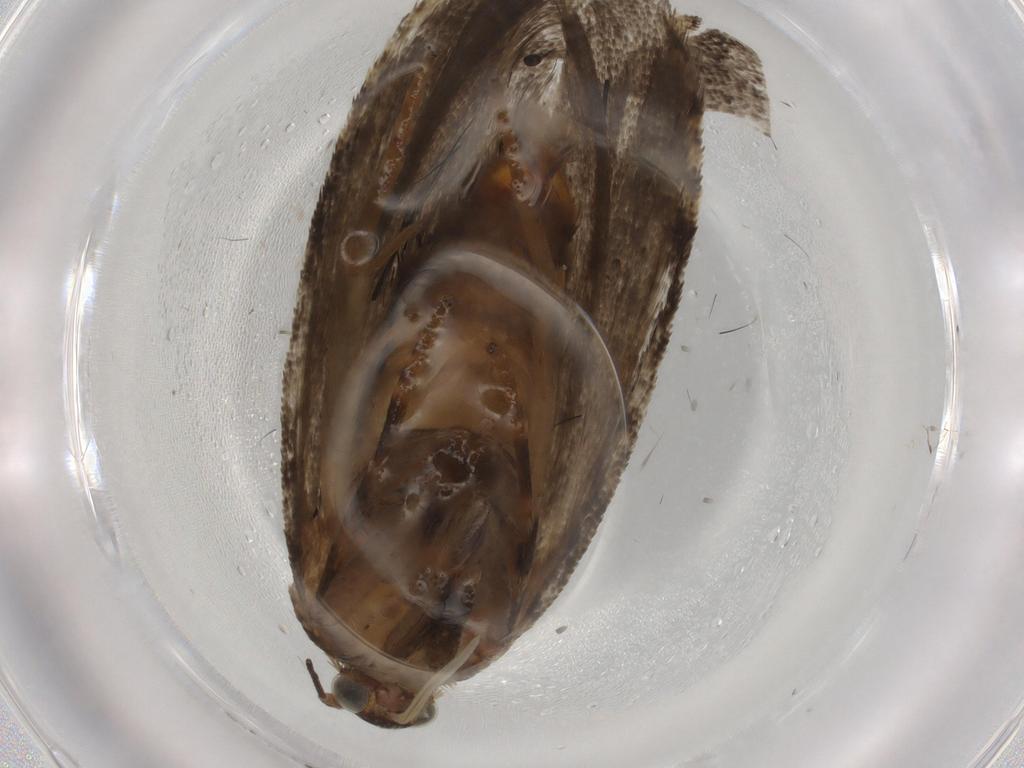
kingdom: Animalia
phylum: Arthropoda
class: Insecta
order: Lepidoptera
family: Tortricidae
